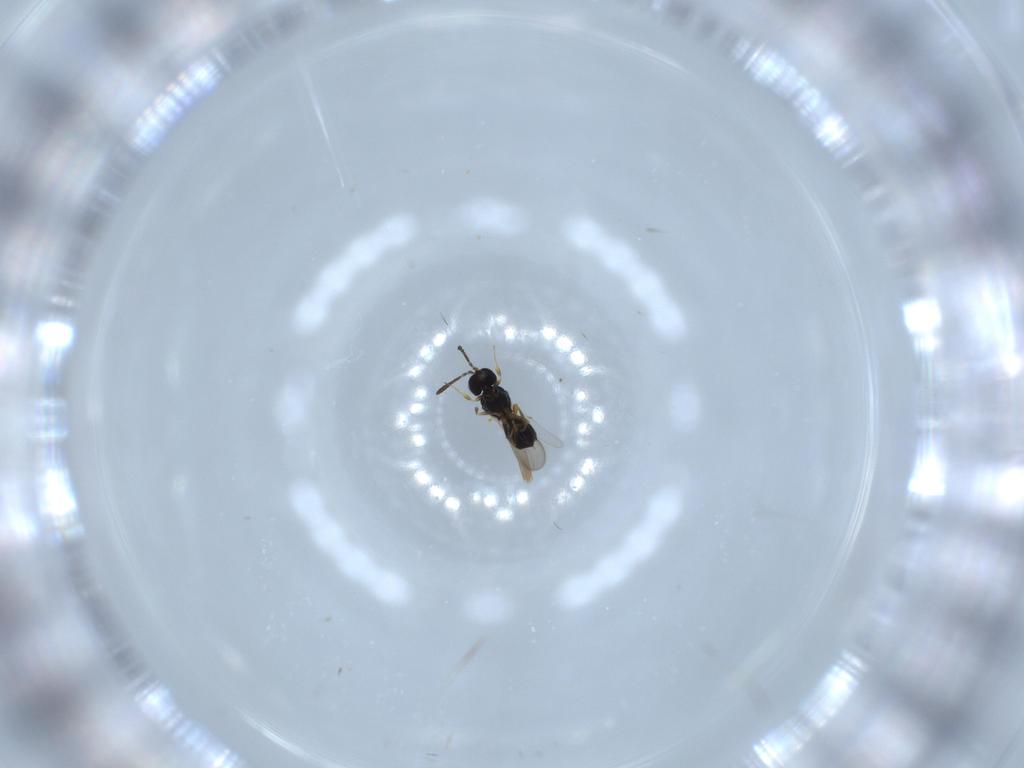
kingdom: Animalia
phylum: Arthropoda
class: Insecta
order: Hymenoptera
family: Scelionidae
